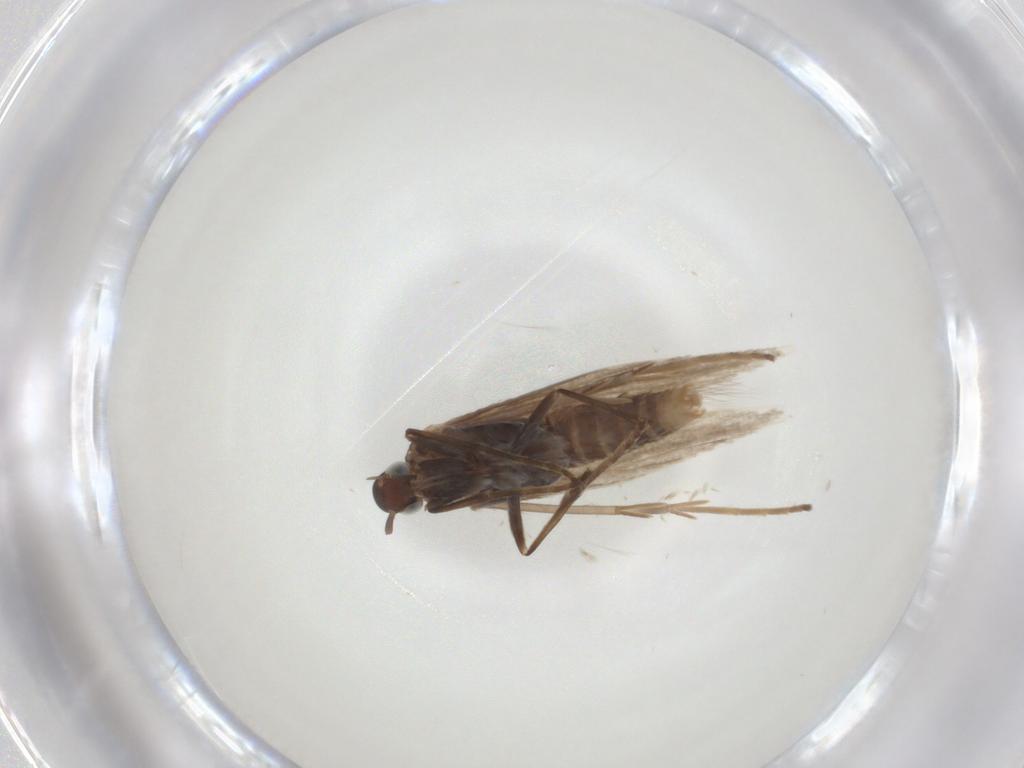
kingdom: Animalia
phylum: Arthropoda
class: Insecta
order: Lepidoptera
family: Coleophoridae
